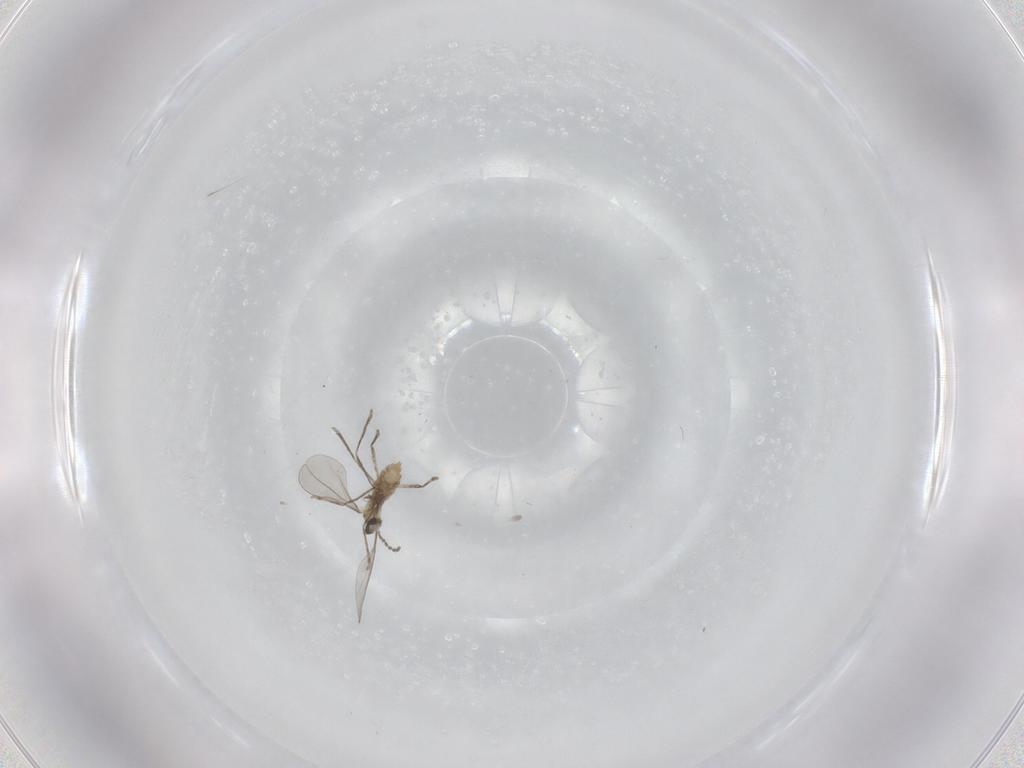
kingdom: Animalia
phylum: Arthropoda
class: Insecta
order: Diptera
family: Cecidomyiidae
